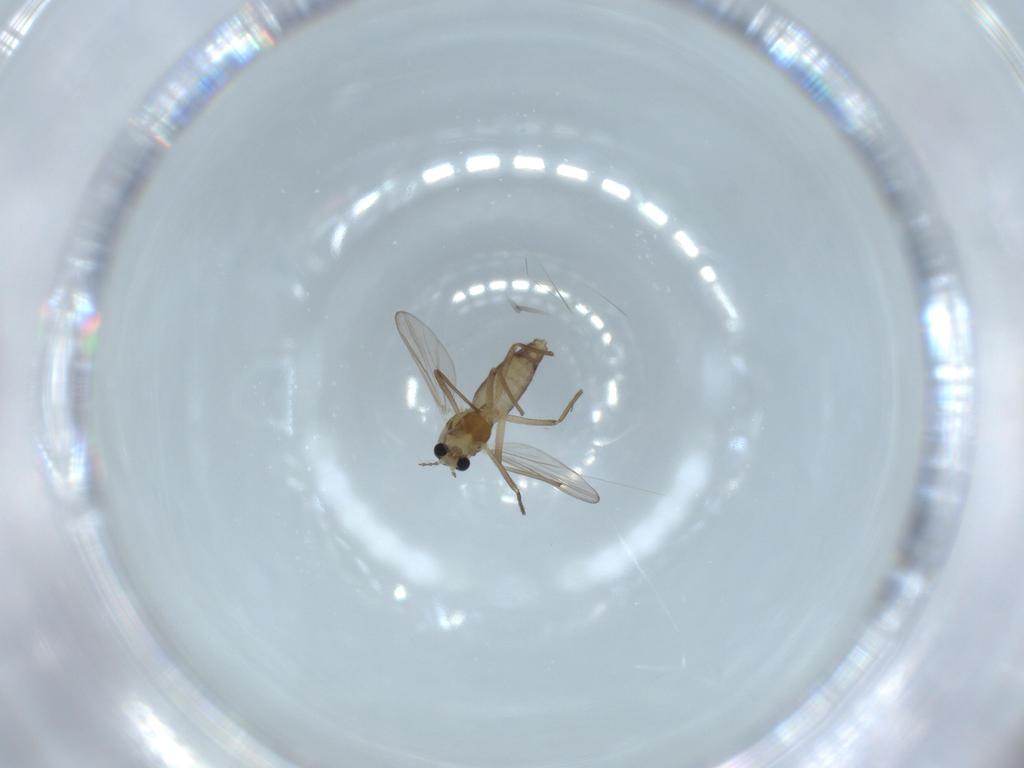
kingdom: Animalia
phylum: Arthropoda
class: Insecta
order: Diptera
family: Chironomidae
